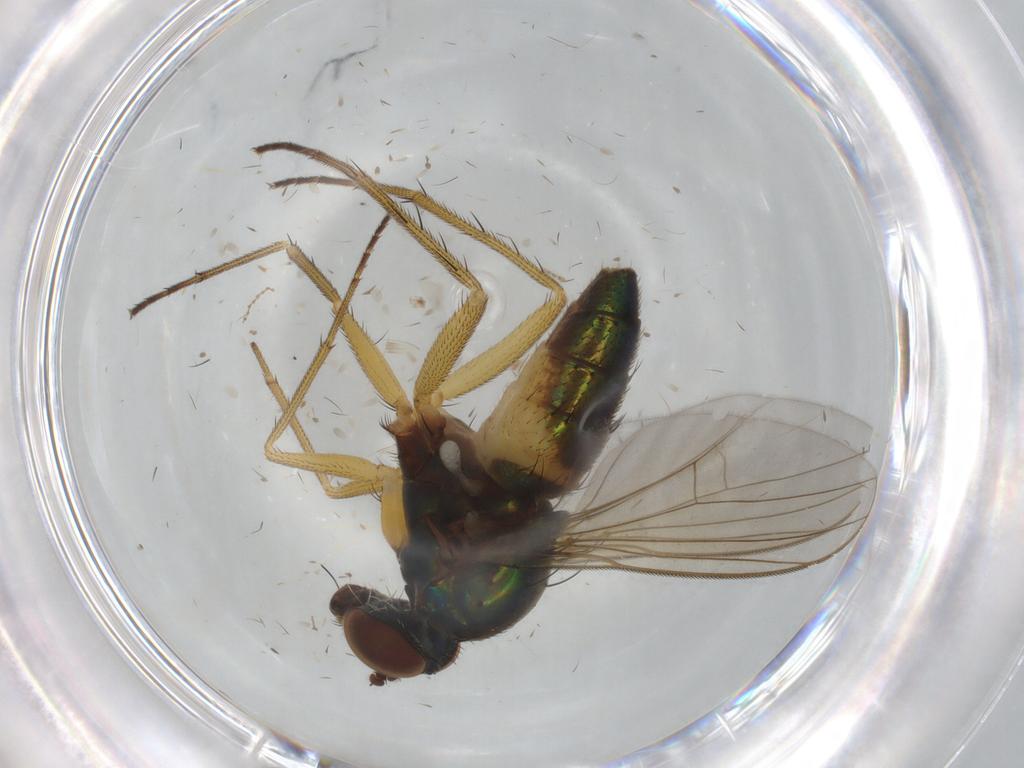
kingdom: Animalia
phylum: Arthropoda
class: Insecta
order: Diptera
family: Dolichopodidae
